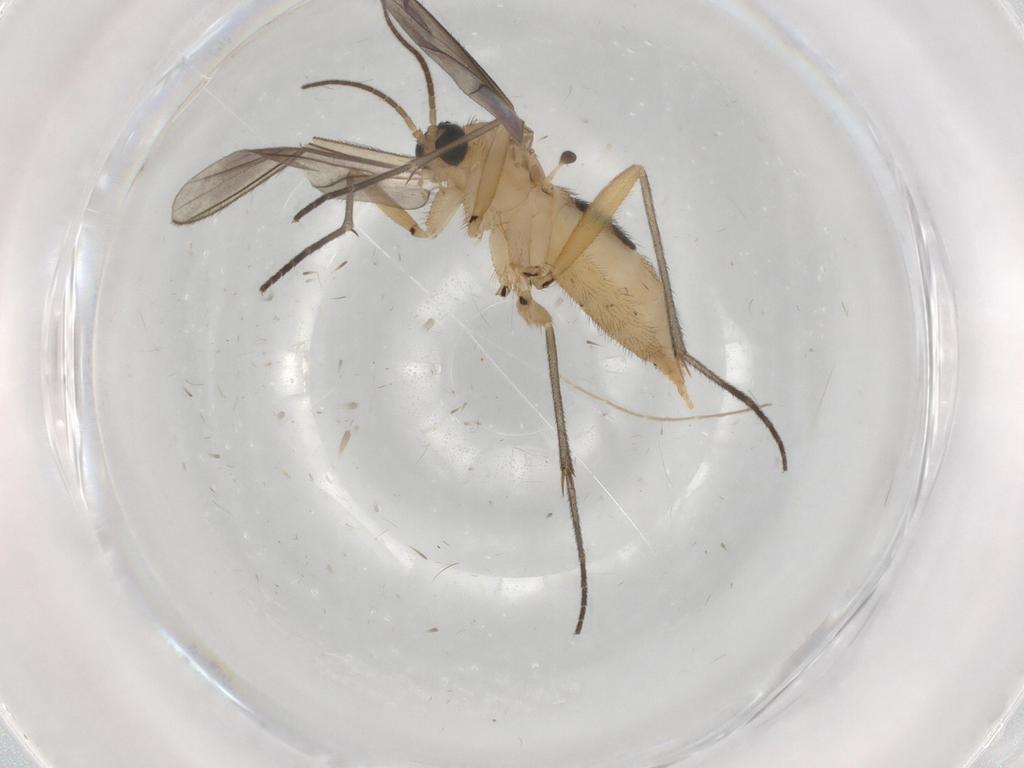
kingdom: Animalia
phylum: Arthropoda
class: Insecta
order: Diptera
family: Sciaridae
